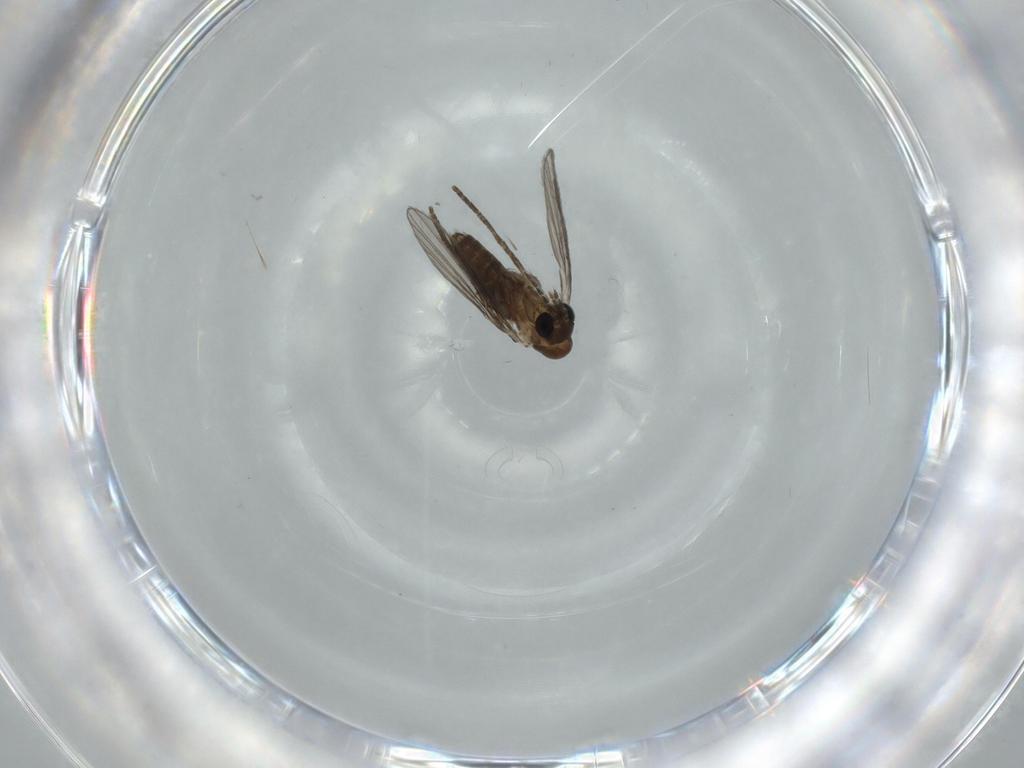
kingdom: Animalia
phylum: Arthropoda
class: Insecta
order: Diptera
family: Psychodidae
